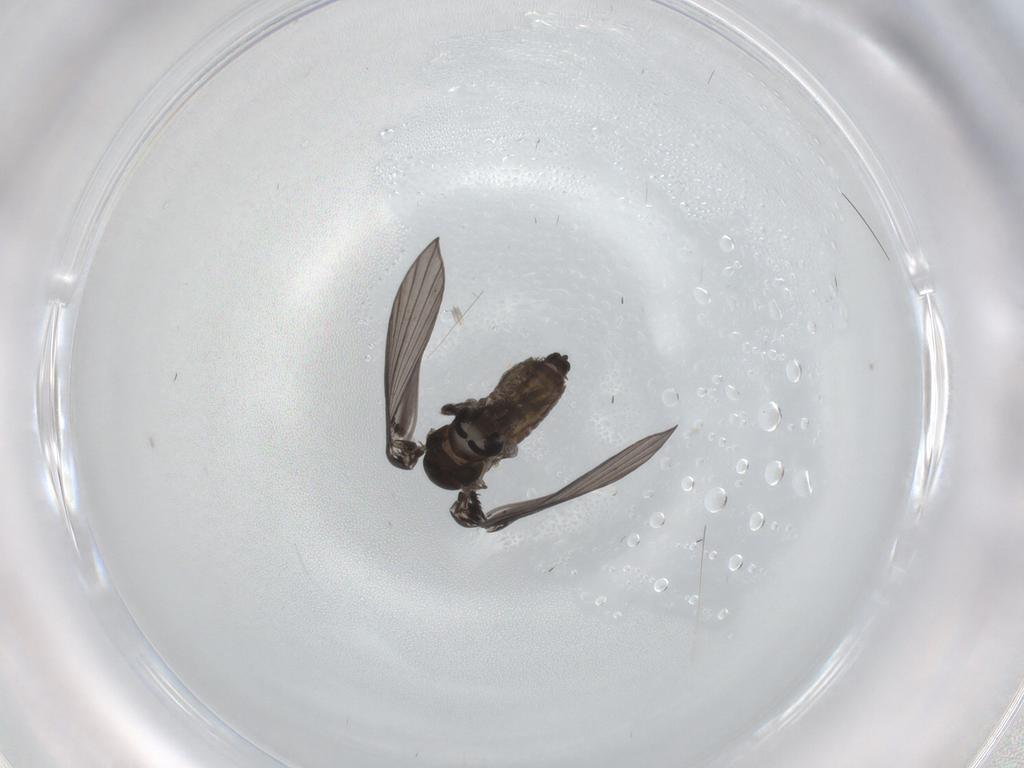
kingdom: Animalia
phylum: Arthropoda
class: Insecta
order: Diptera
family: Psychodidae
